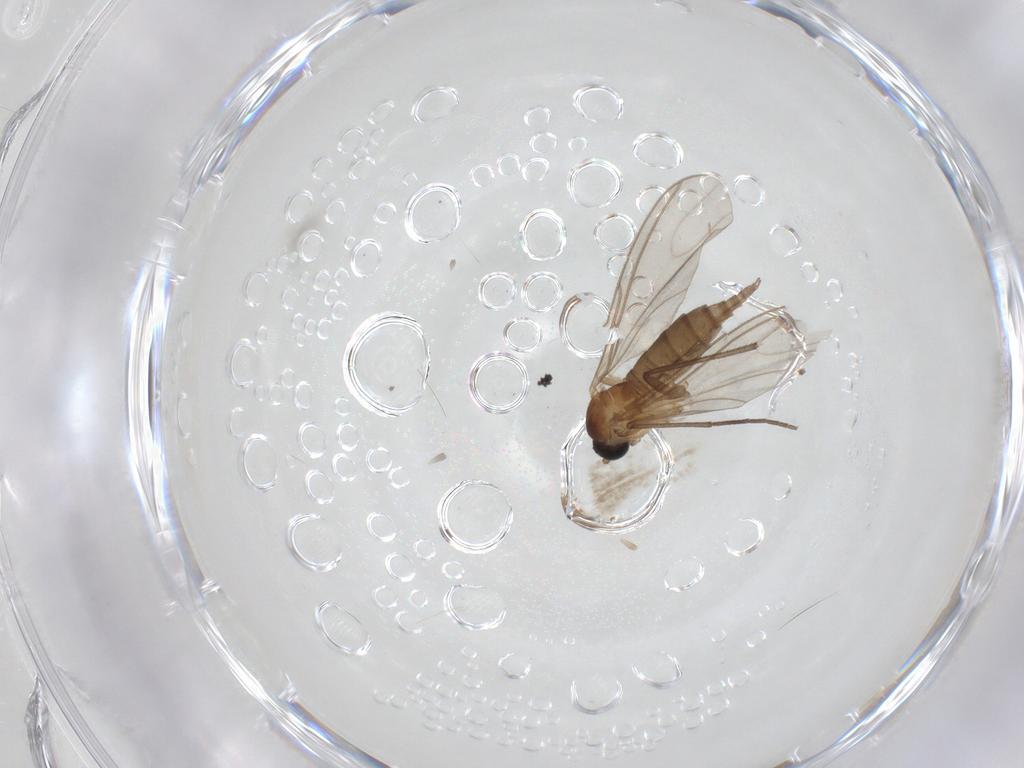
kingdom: Animalia
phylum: Arthropoda
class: Insecta
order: Diptera
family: Sciaridae
